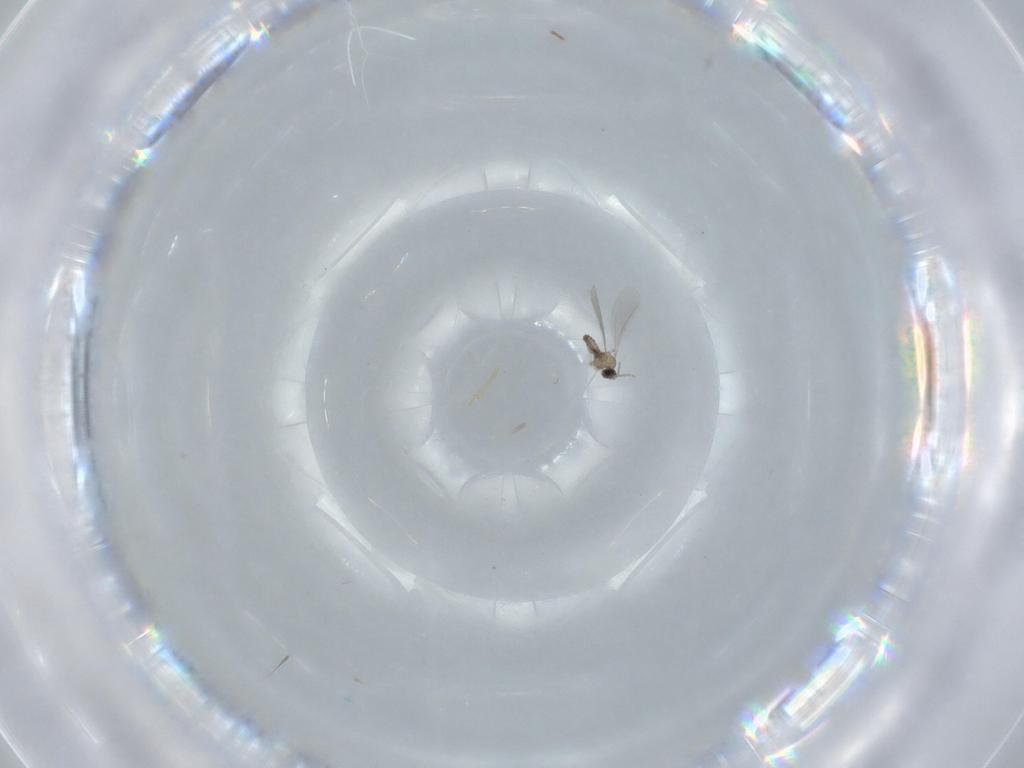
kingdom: Animalia
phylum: Arthropoda
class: Insecta
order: Diptera
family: Cecidomyiidae
